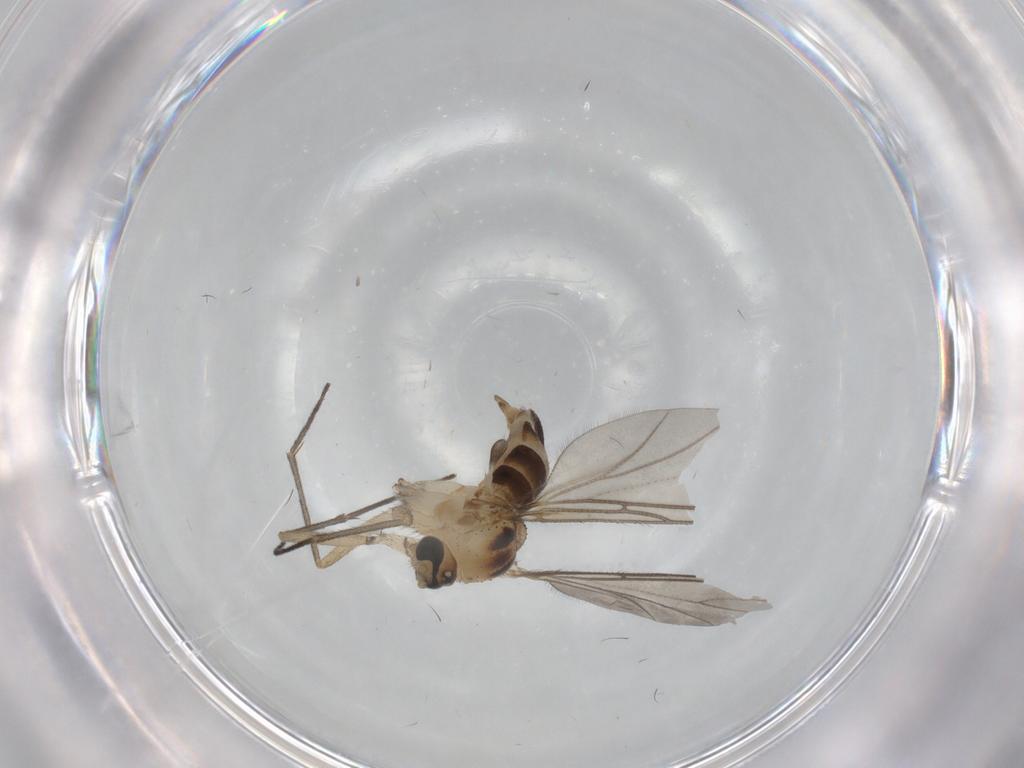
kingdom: Animalia
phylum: Arthropoda
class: Insecta
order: Diptera
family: Sciaridae
